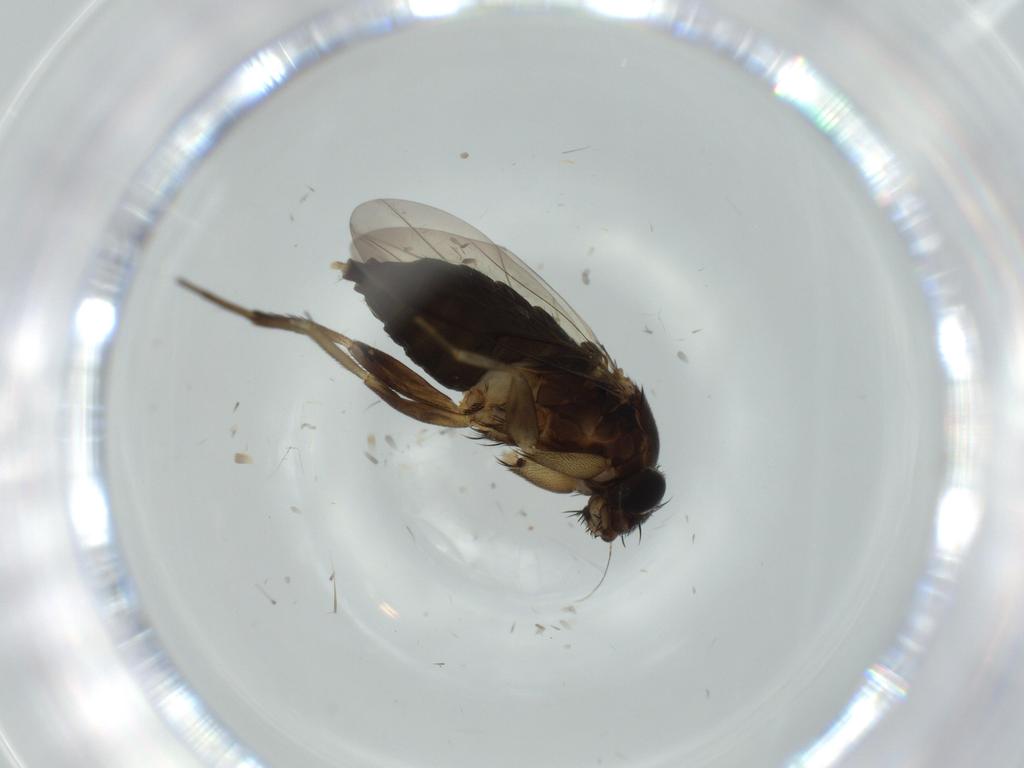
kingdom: Animalia
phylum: Arthropoda
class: Insecta
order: Diptera
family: Phoridae
